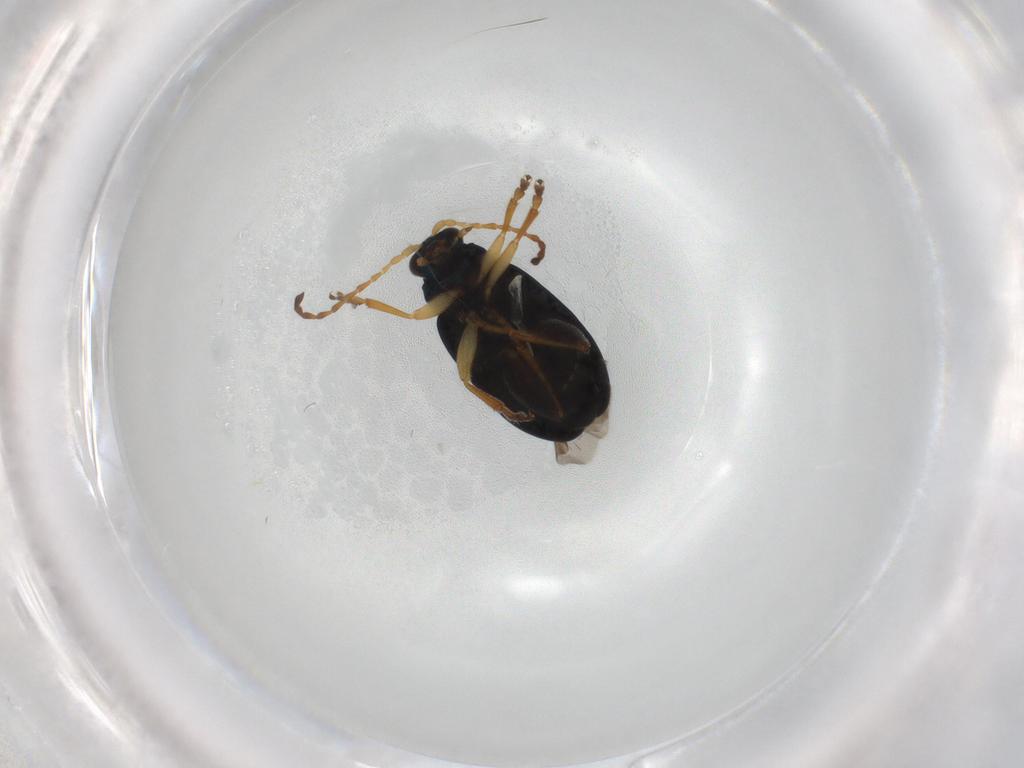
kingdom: Animalia
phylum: Arthropoda
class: Insecta
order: Coleoptera
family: Chrysomelidae
